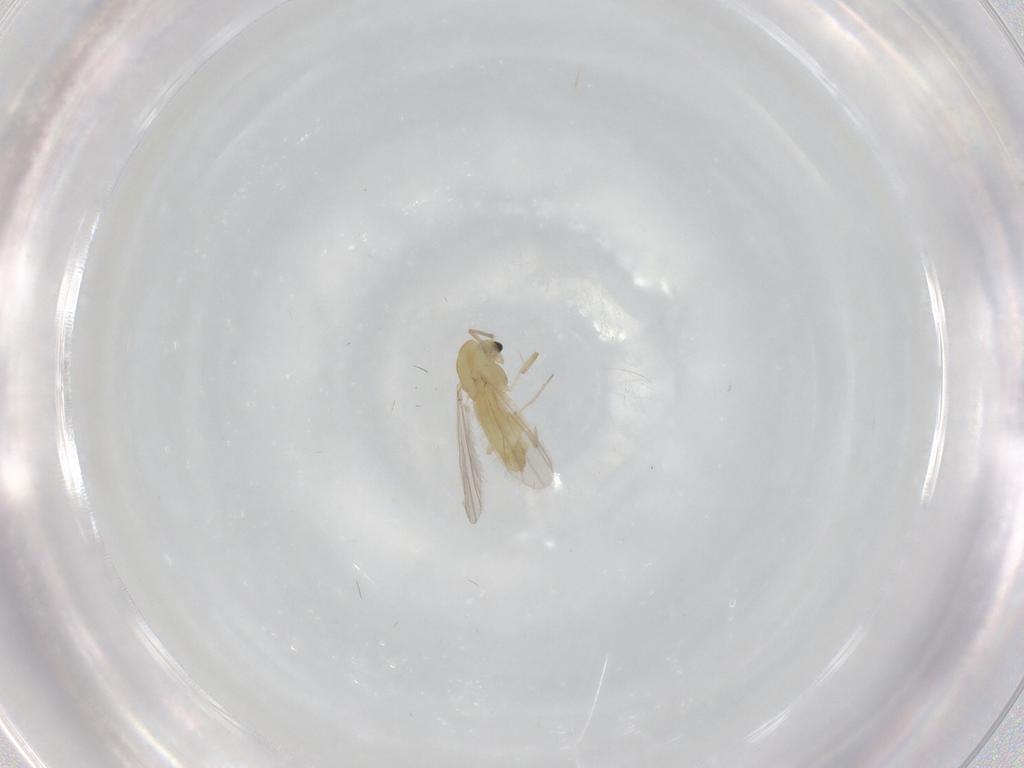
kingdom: Animalia
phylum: Arthropoda
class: Insecta
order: Diptera
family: Chironomidae
